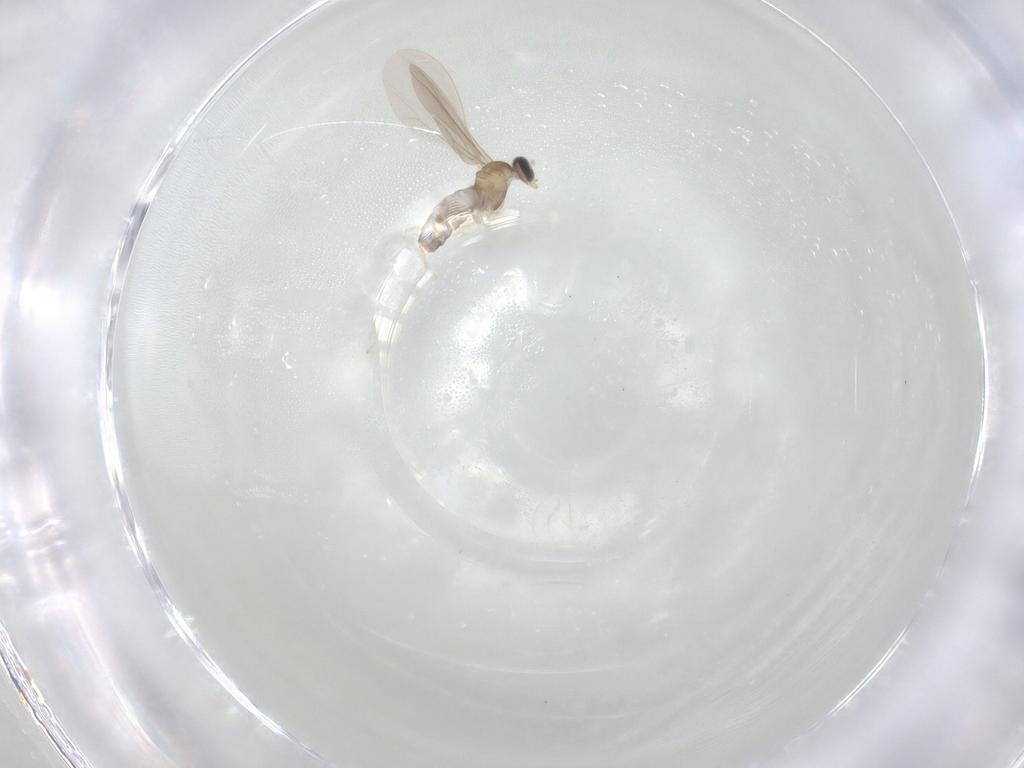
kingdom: Animalia
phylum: Arthropoda
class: Insecta
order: Diptera
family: Cecidomyiidae
